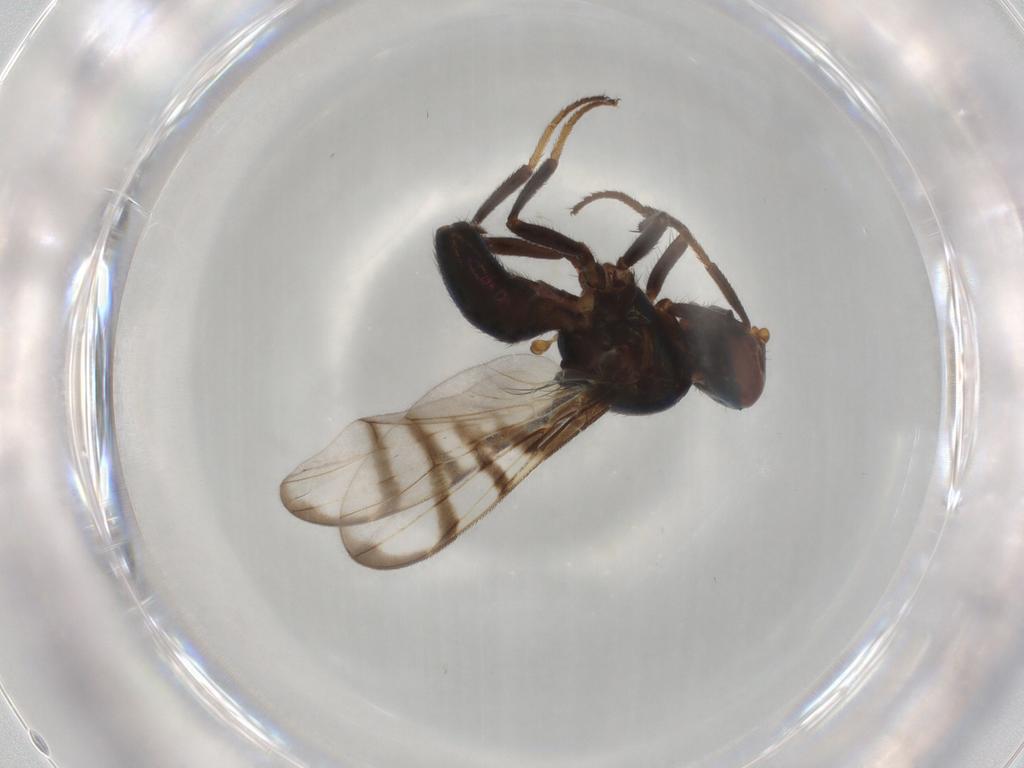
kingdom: Animalia
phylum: Arthropoda
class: Insecta
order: Diptera
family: Platystomatidae
